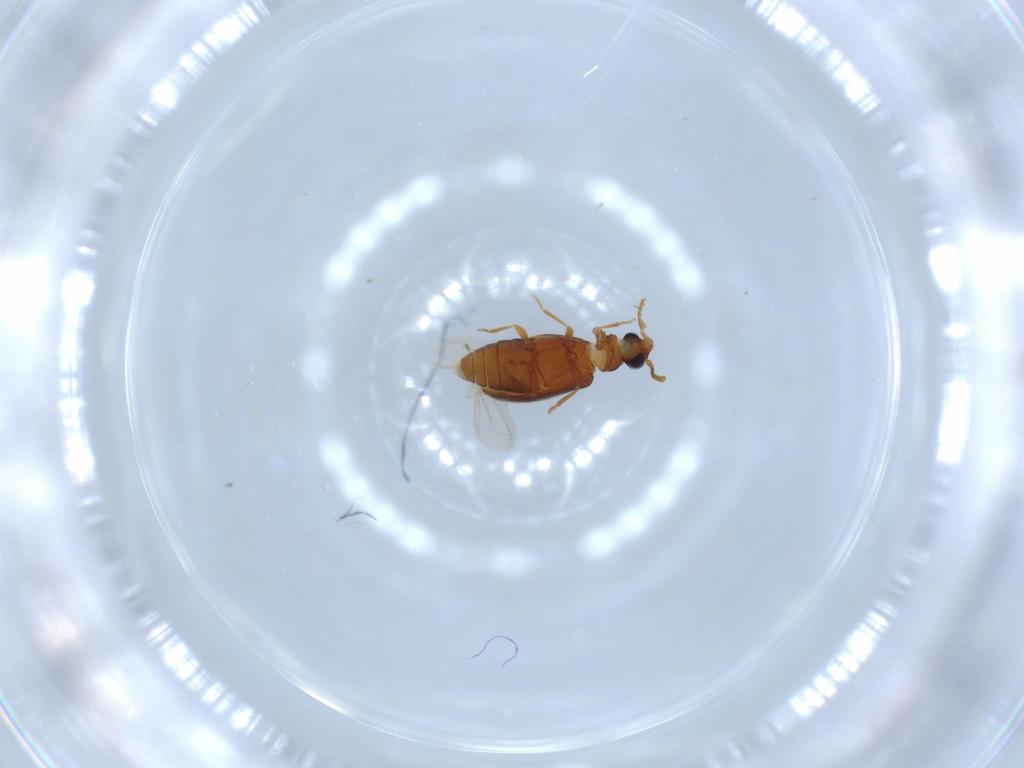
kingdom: Animalia
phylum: Arthropoda
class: Insecta
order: Coleoptera
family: Aderidae
